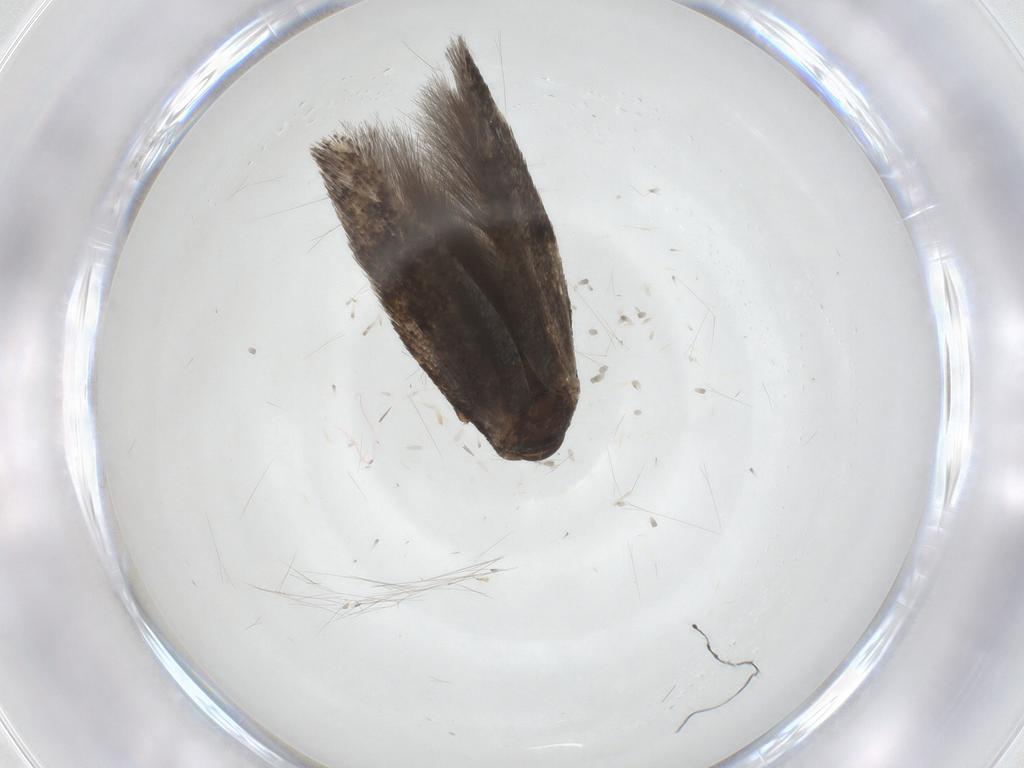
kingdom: Animalia
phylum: Arthropoda
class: Insecta
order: Lepidoptera
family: Elachistidae
